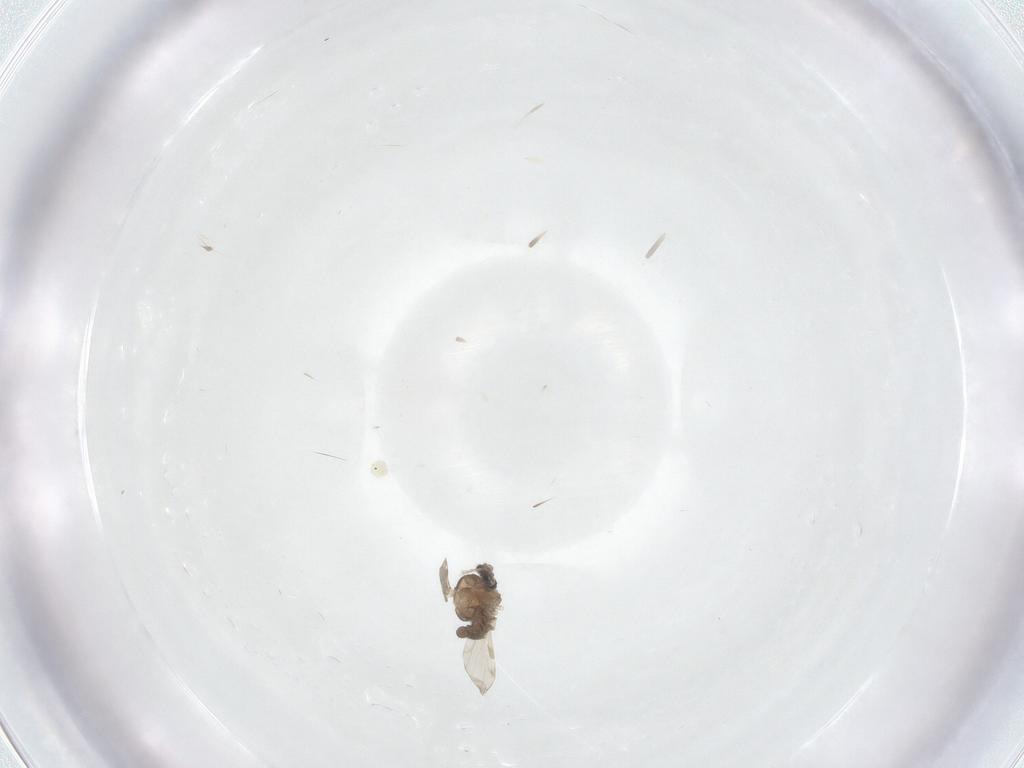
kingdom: Animalia
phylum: Arthropoda
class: Insecta
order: Diptera
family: Ceratopogonidae
